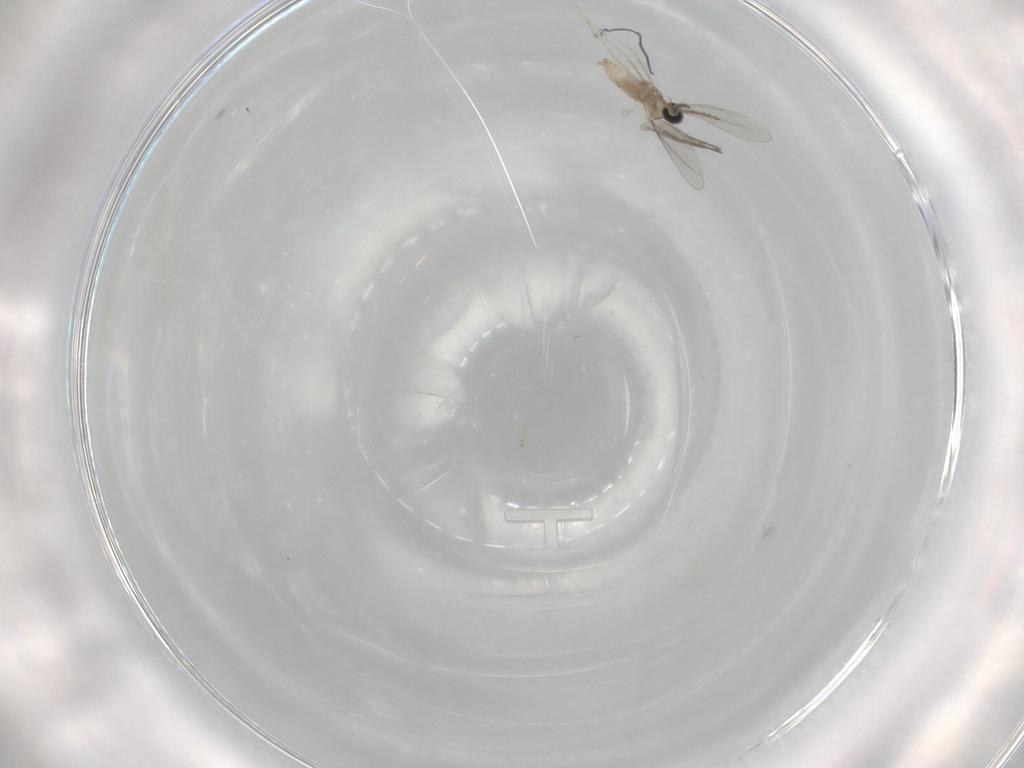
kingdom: Animalia
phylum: Arthropoda
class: Insecta
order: Diptera
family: Cecidomyiidae
